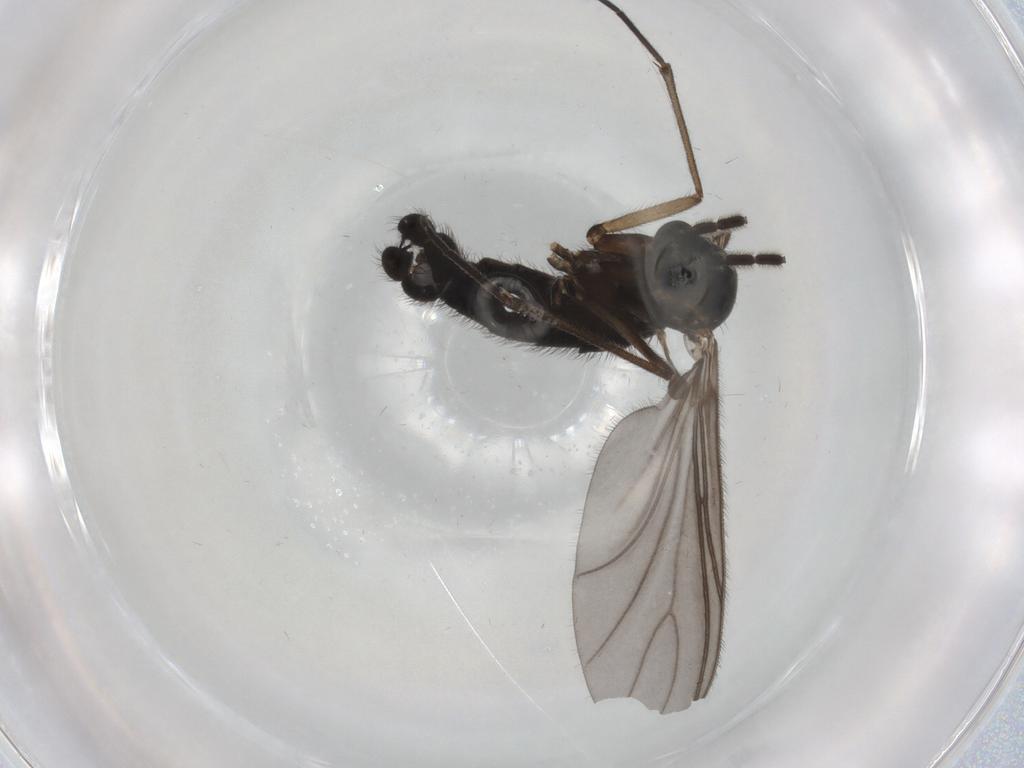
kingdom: Animalia
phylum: Arthropoda
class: Insecta
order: Diptera
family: Sciaridae
